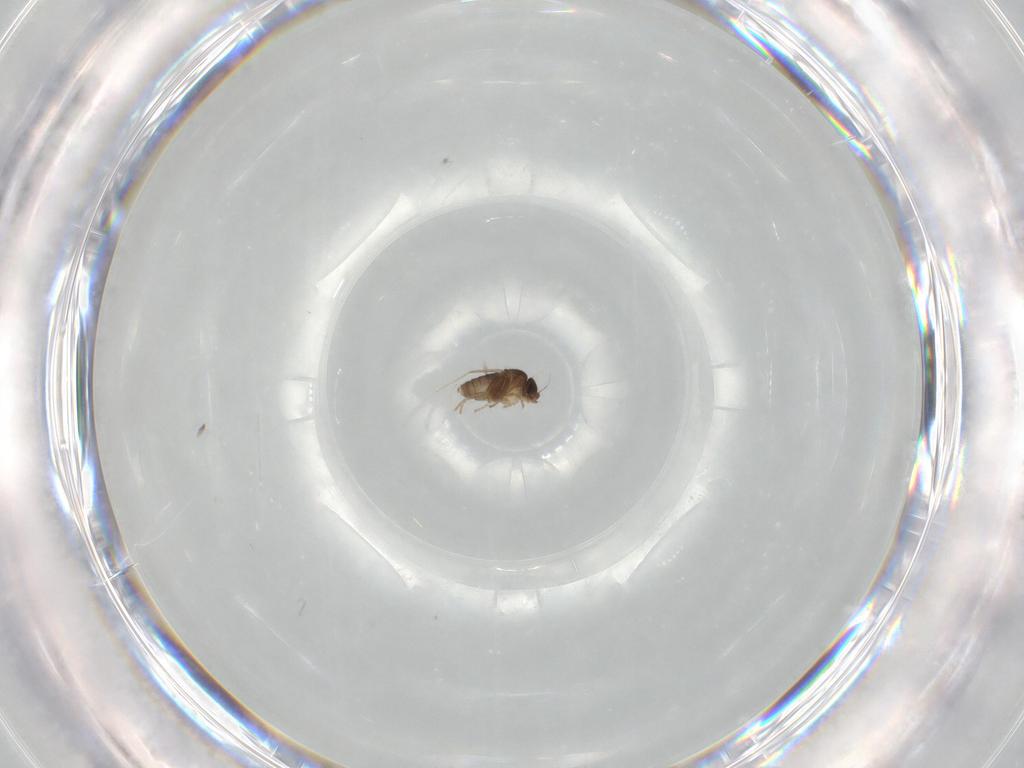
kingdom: Animalia
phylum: Arthropoda
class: Insecta
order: Diptera
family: Phoridae
